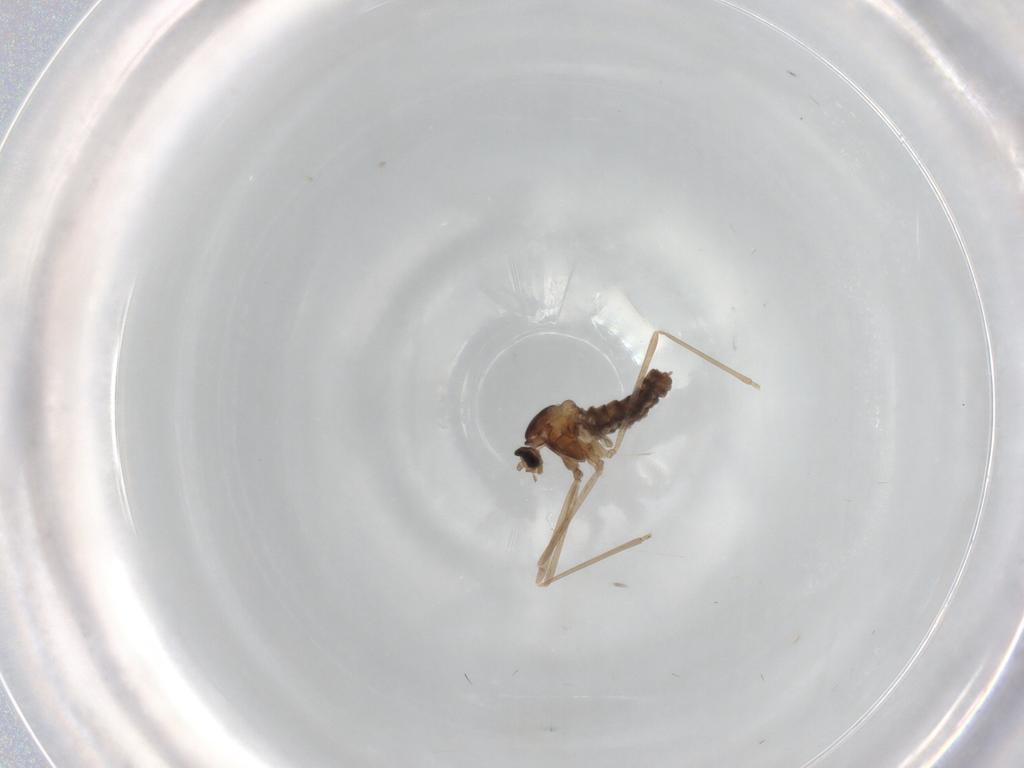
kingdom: Animalia
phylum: Arthropoda
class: Insecta
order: Diptera
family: Cecidomyiidae
